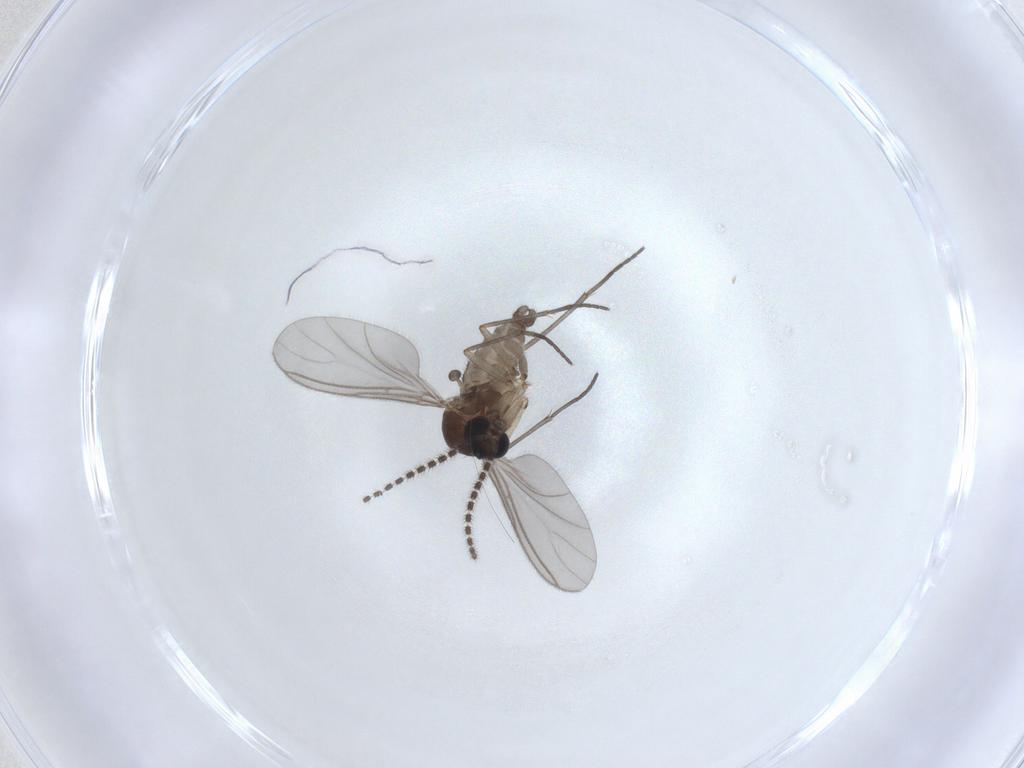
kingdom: Animalia
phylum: Arthropoda
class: Insecta
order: Diptera
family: Sciaridae
